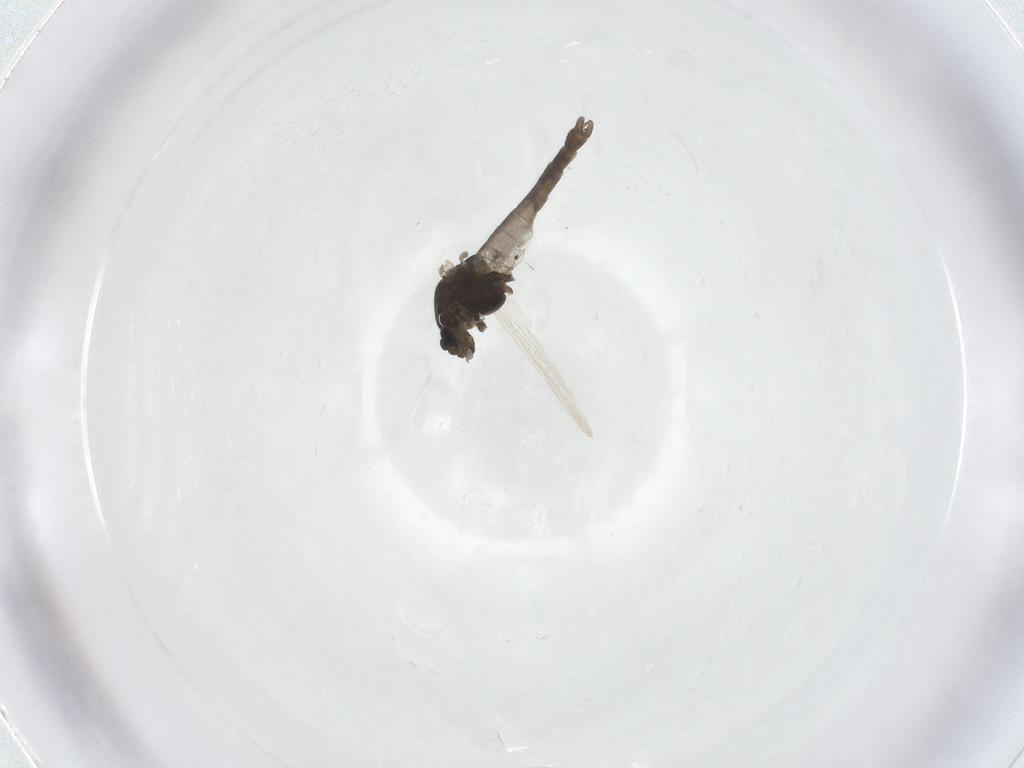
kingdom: Animalia
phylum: Arthropoda
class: Insecta
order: Diptera
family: Chironomidae
